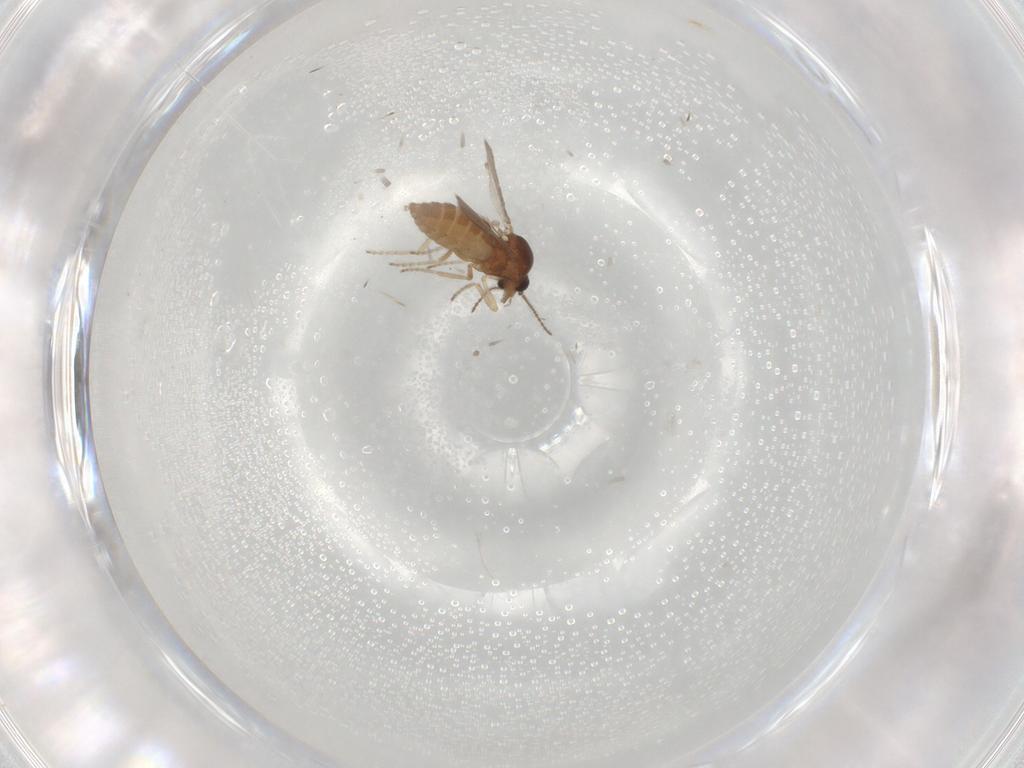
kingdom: Animalia
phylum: Arthropoda
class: Insecta
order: Diptera
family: Ceratopogonidae
